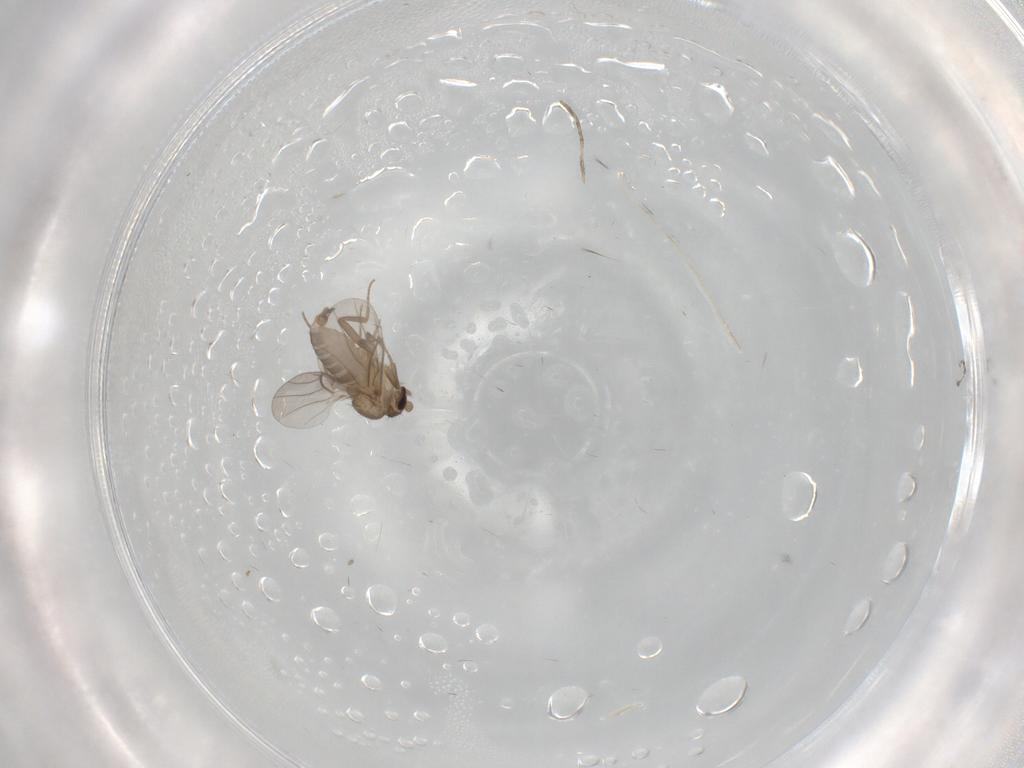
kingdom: Animalia
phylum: Arthropoda
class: Insecta
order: Diptera
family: Cecidomyiidae
